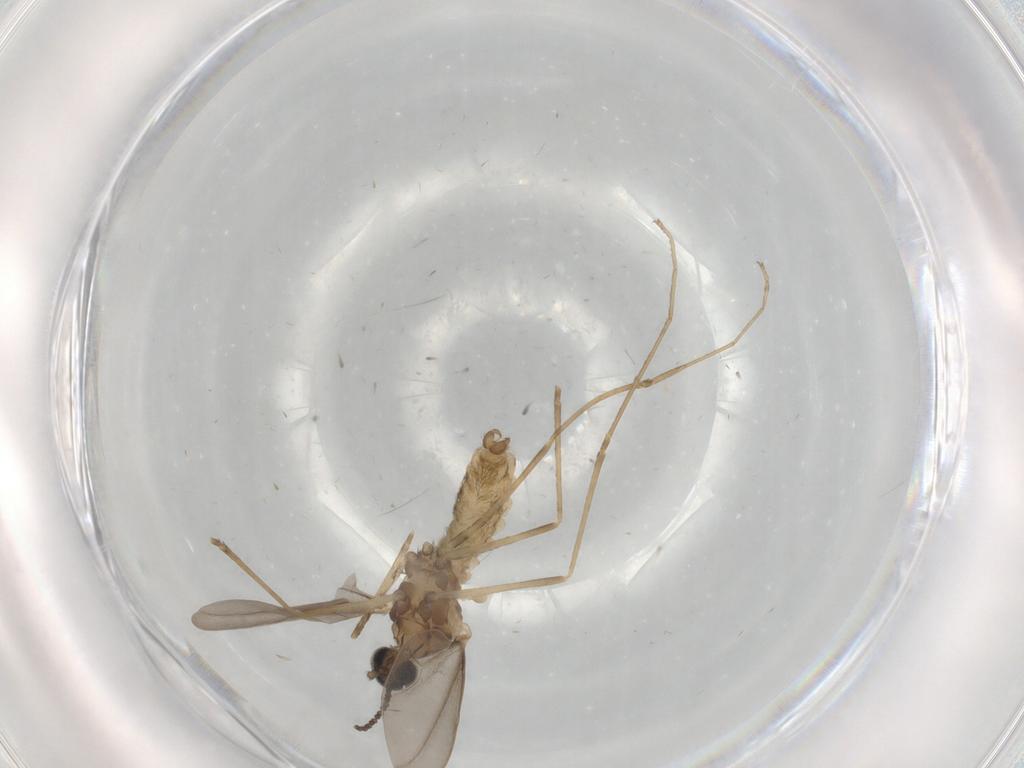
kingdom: Animalia
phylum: Arthropoda
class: Insecta
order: Diptera
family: Cecidomyiidae
